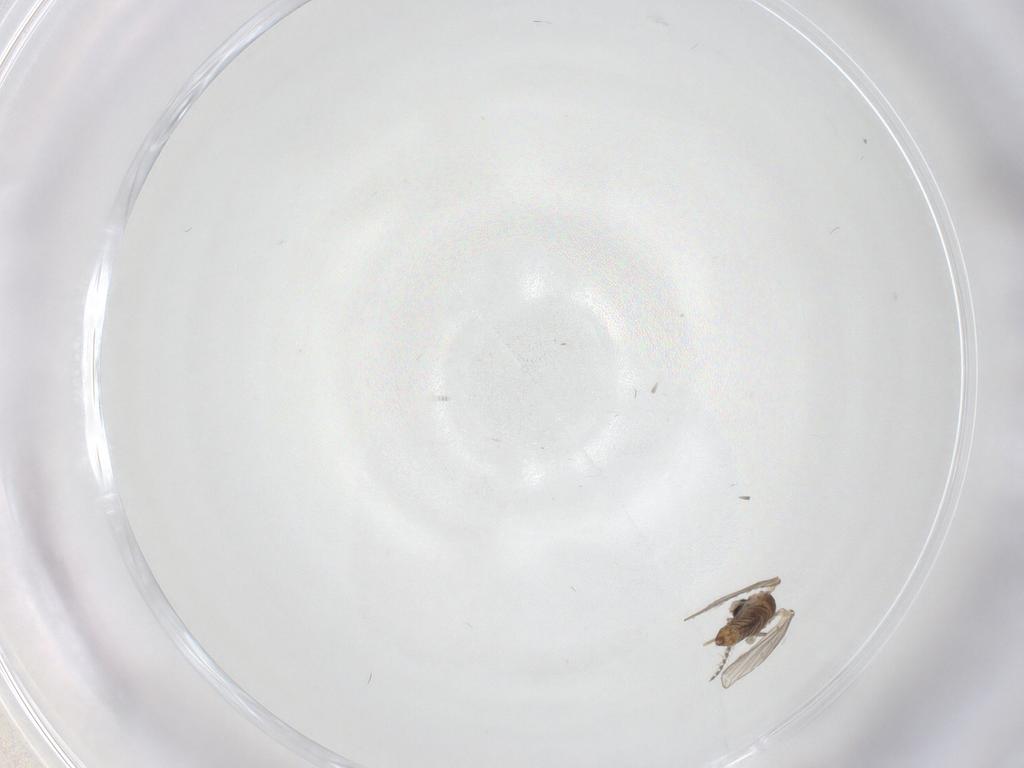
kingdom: Animalia
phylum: Arthropoda
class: Insecta
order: Diptera
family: Psychodidae
